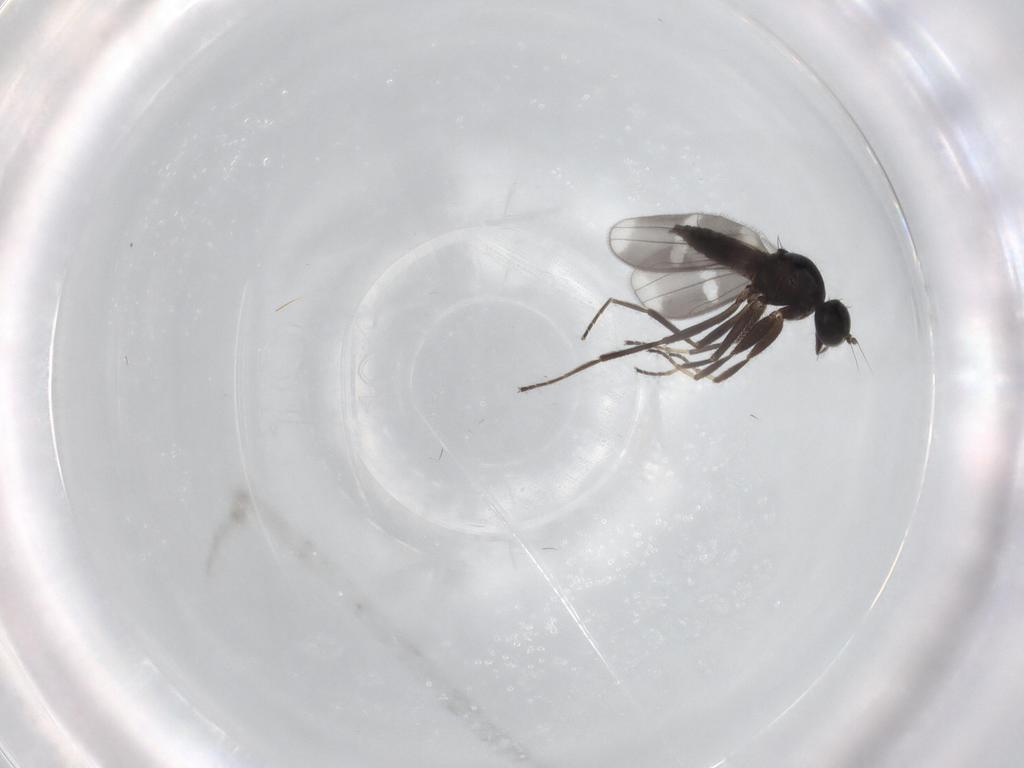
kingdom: Animalia
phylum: Arthropoda
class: Insecta
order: Diptera
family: Hybotidae
